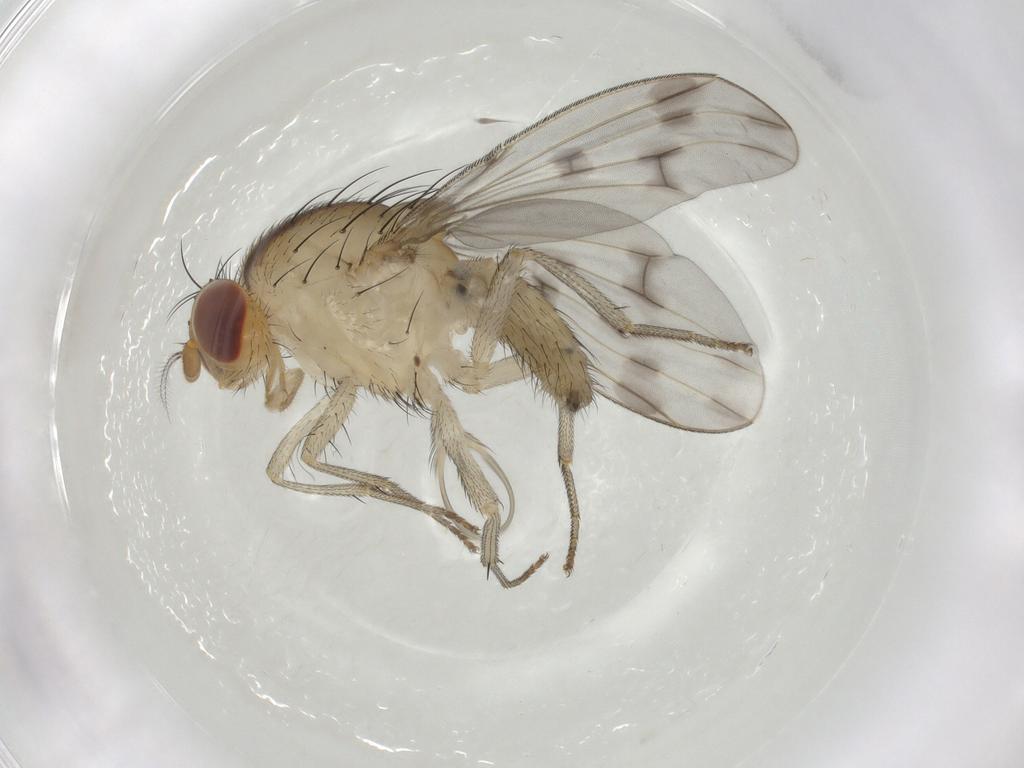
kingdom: Animalia
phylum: Arthropoda
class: Insecta
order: Diptera
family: Lauxaniidae
